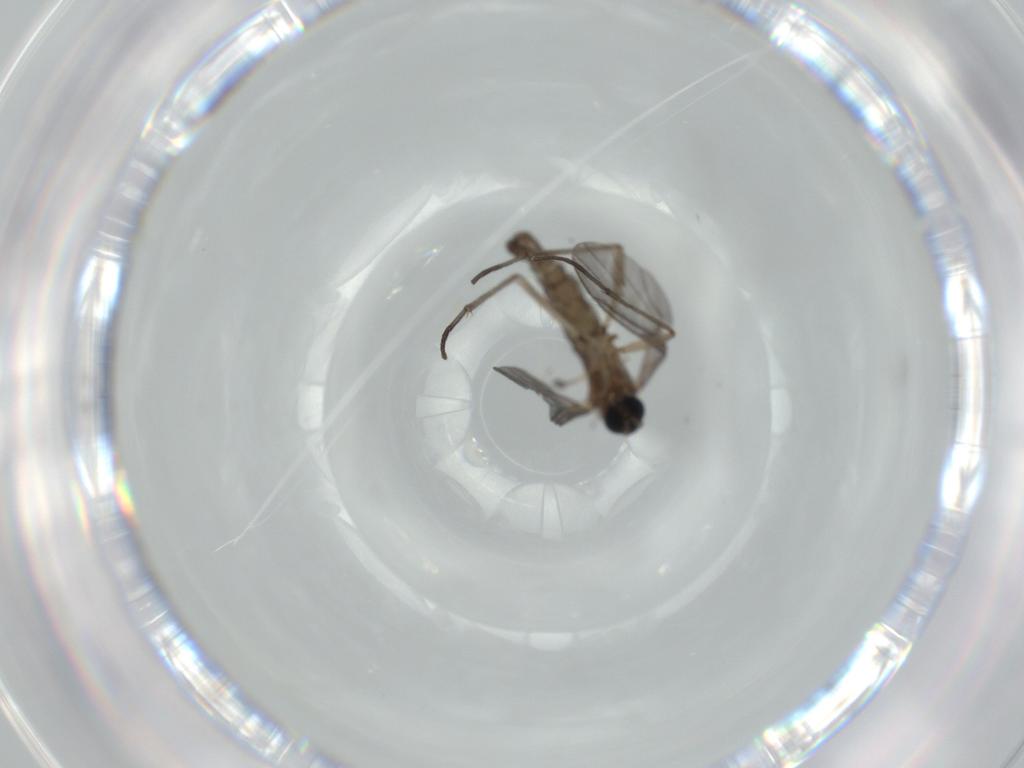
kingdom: Animalia
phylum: Arthropoda
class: Insecta
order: Diptera
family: Sciaridae
